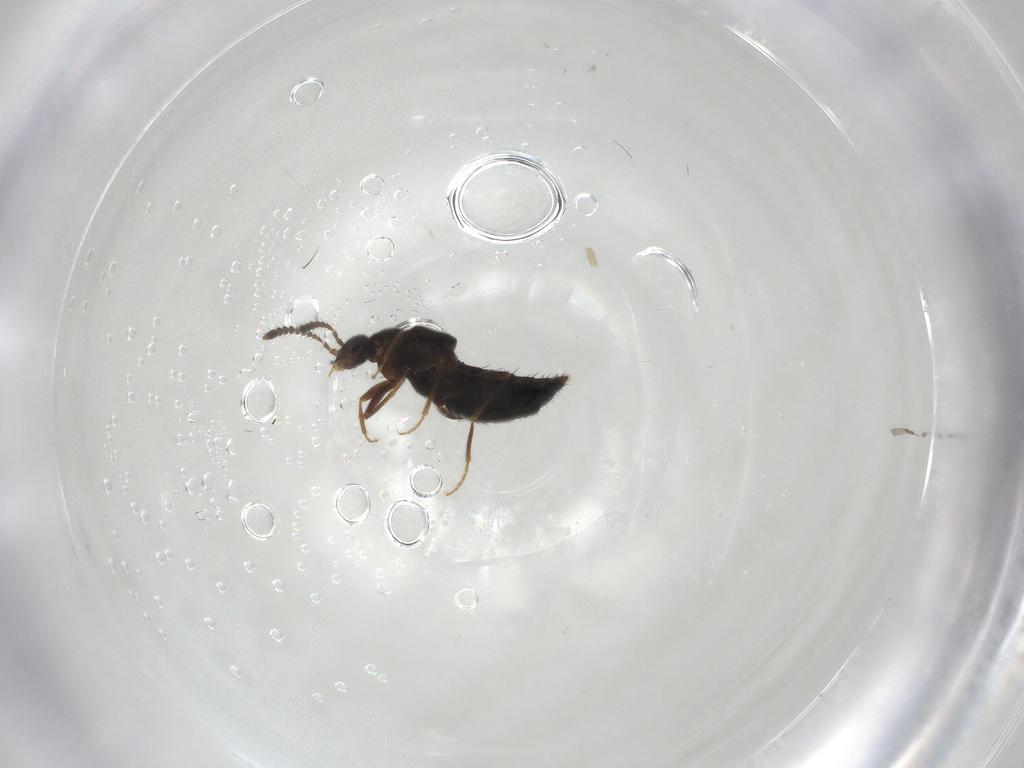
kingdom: Animalia
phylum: Arthropoda
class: Insecta
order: Coleoptera
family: Staphylinidae
